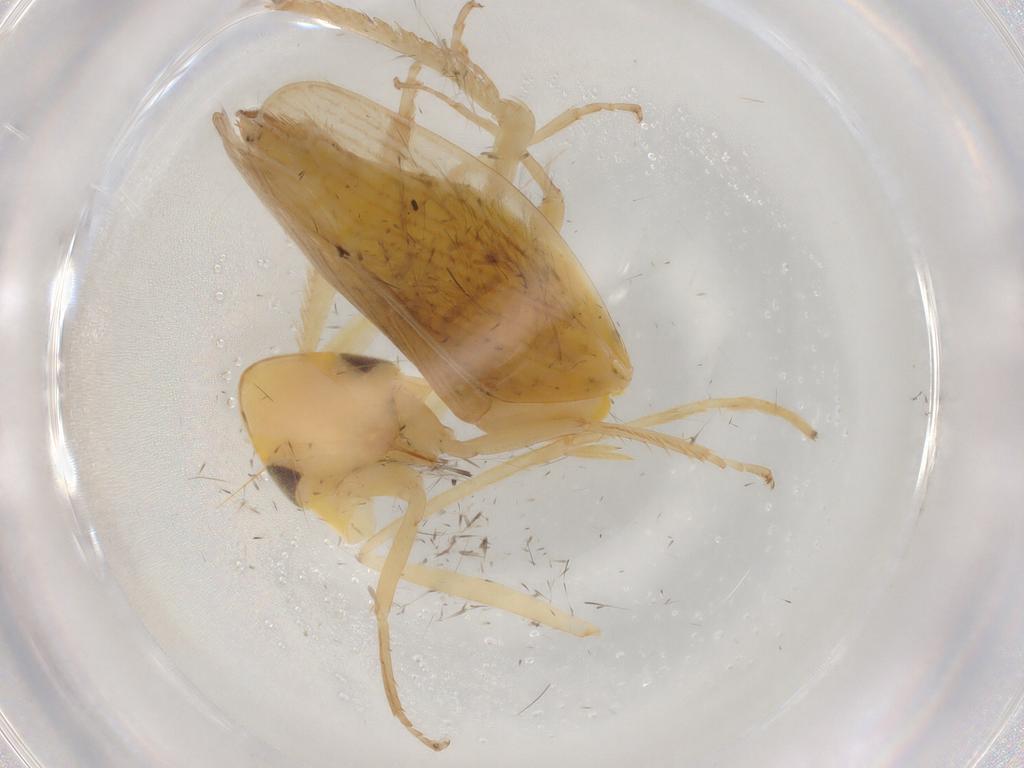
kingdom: Animalia
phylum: Arthropoda
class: Insecta
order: Hemiptera
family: Cicadellidae
